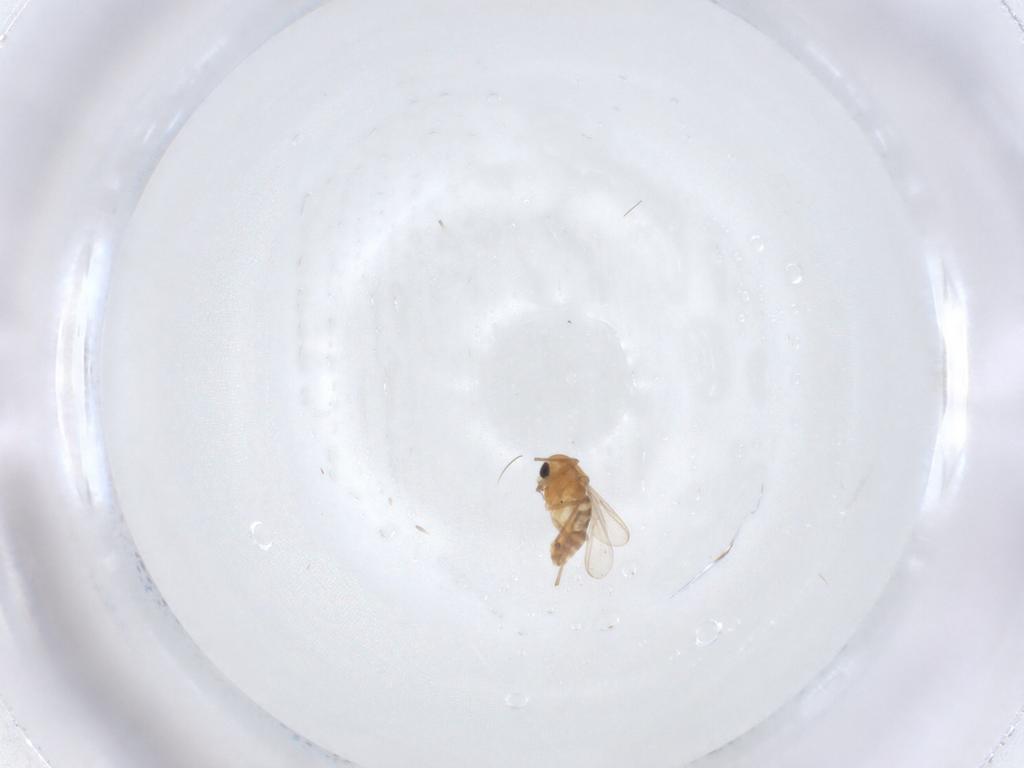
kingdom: Animalia
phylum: Arthropoda
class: Insecta
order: Diptera
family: Chironomidae
